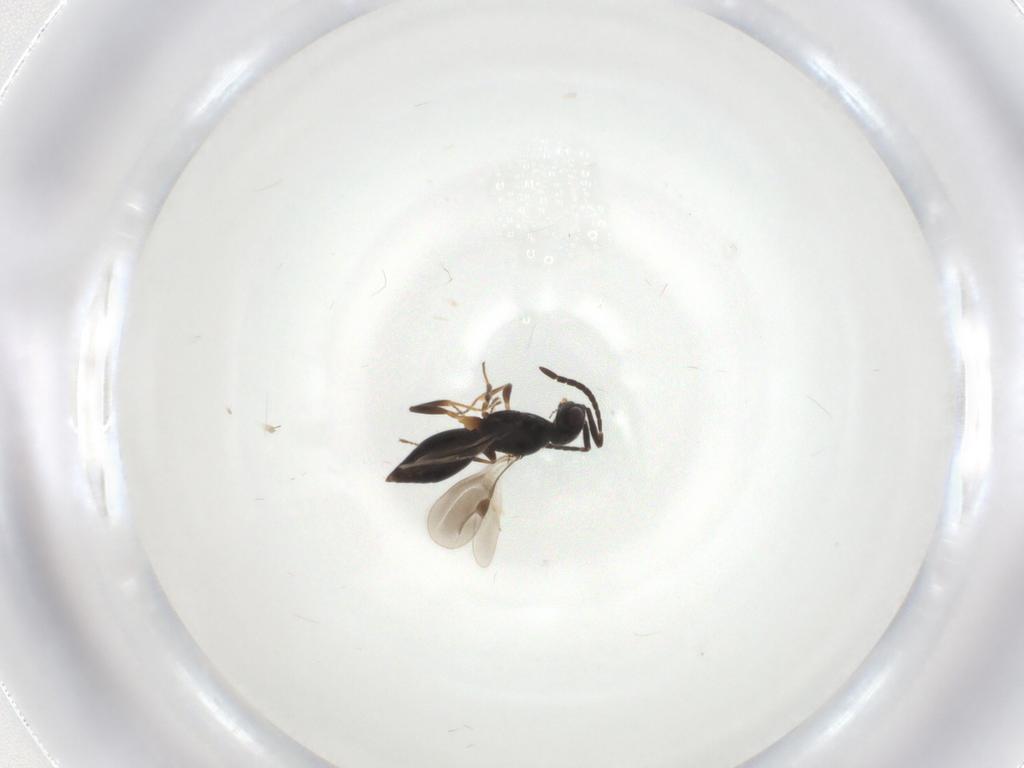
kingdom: Animalia
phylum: Arthropoda
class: Insecta
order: Hymenoptera
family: Megaspilidae
